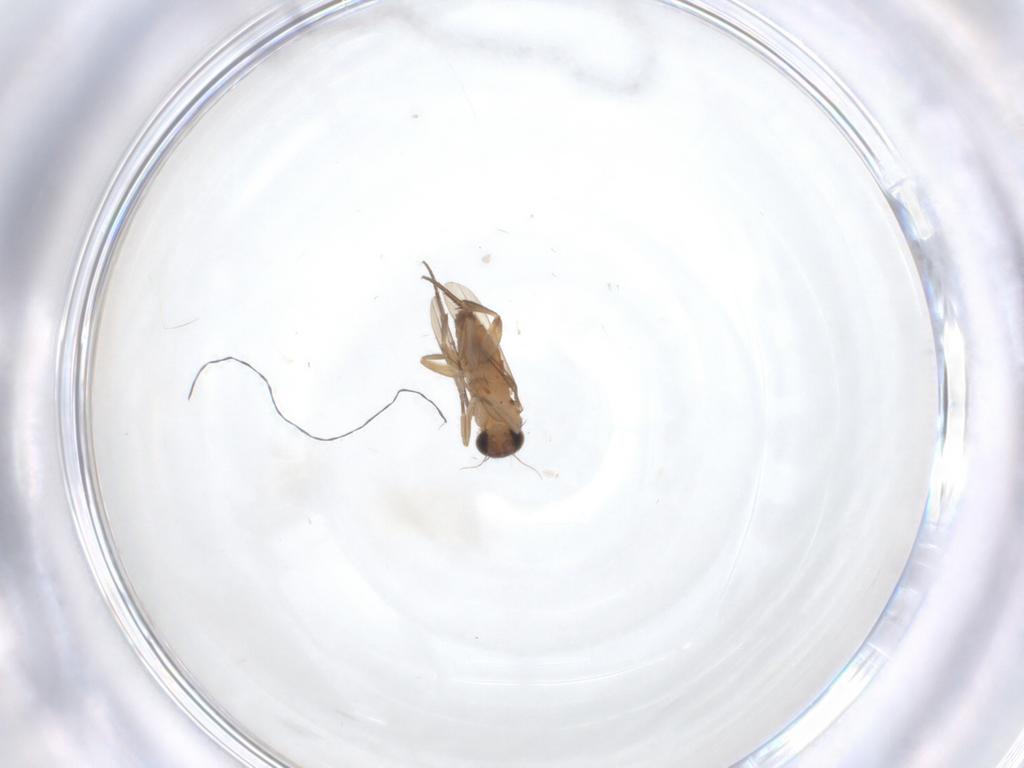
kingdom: Animalia
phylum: Arthropoda
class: Insecta
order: Diptera
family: Phoridae
